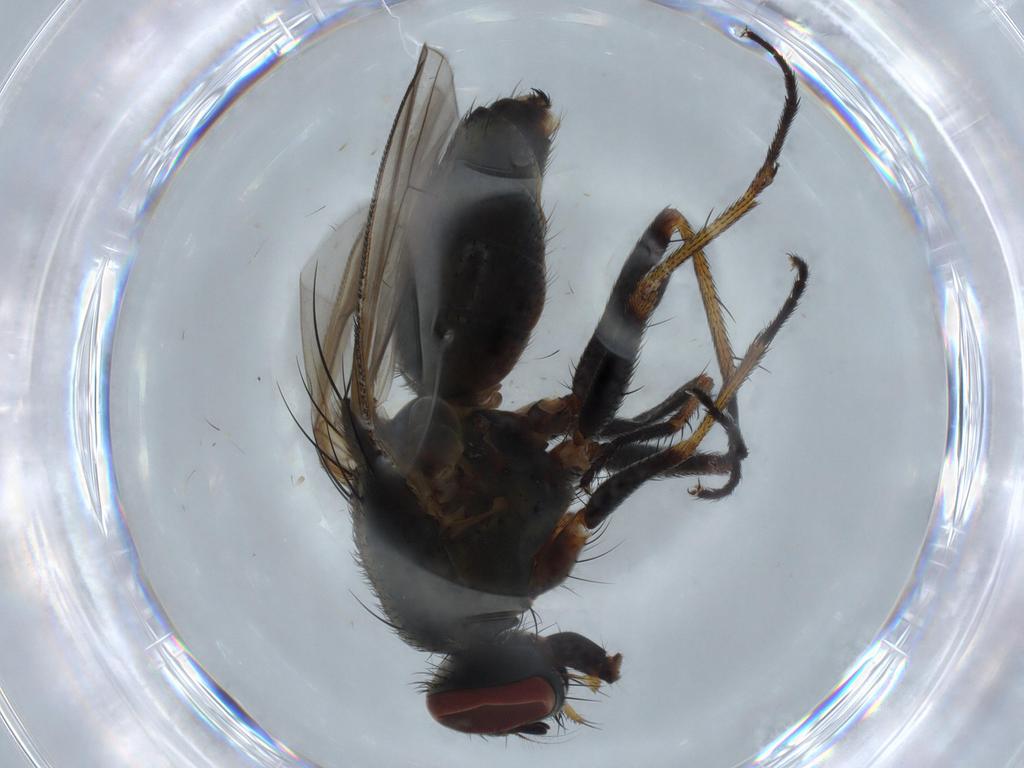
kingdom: Animalia
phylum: Arthropoda
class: Insecta
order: Diptera
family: Muscidae
